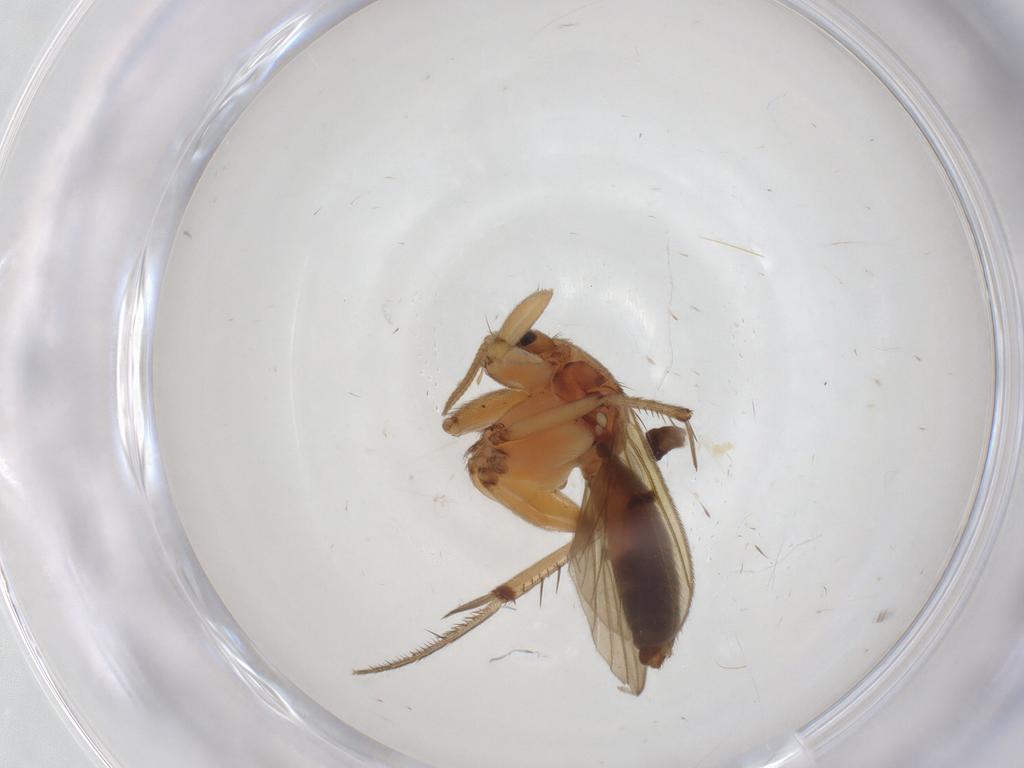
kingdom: Animalia
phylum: Arthropoda
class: Insecta
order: Diptera
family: Mycetophilidae
